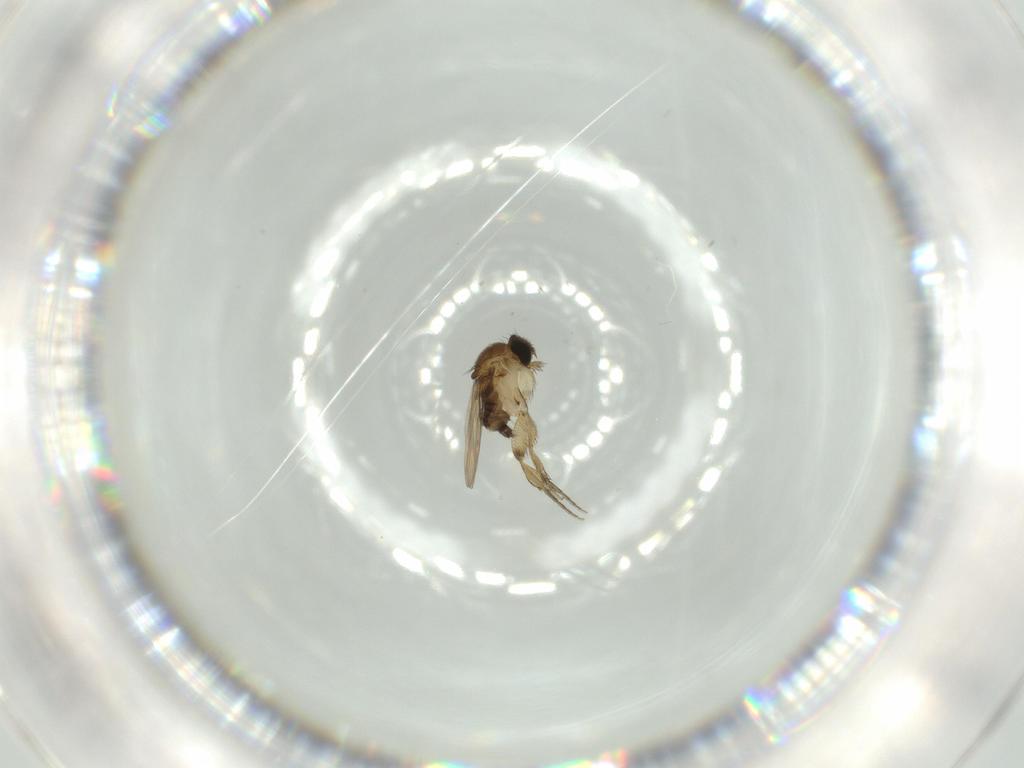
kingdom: Animalia
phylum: Arthropoda
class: Insecta
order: Diptera
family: Phoridae
